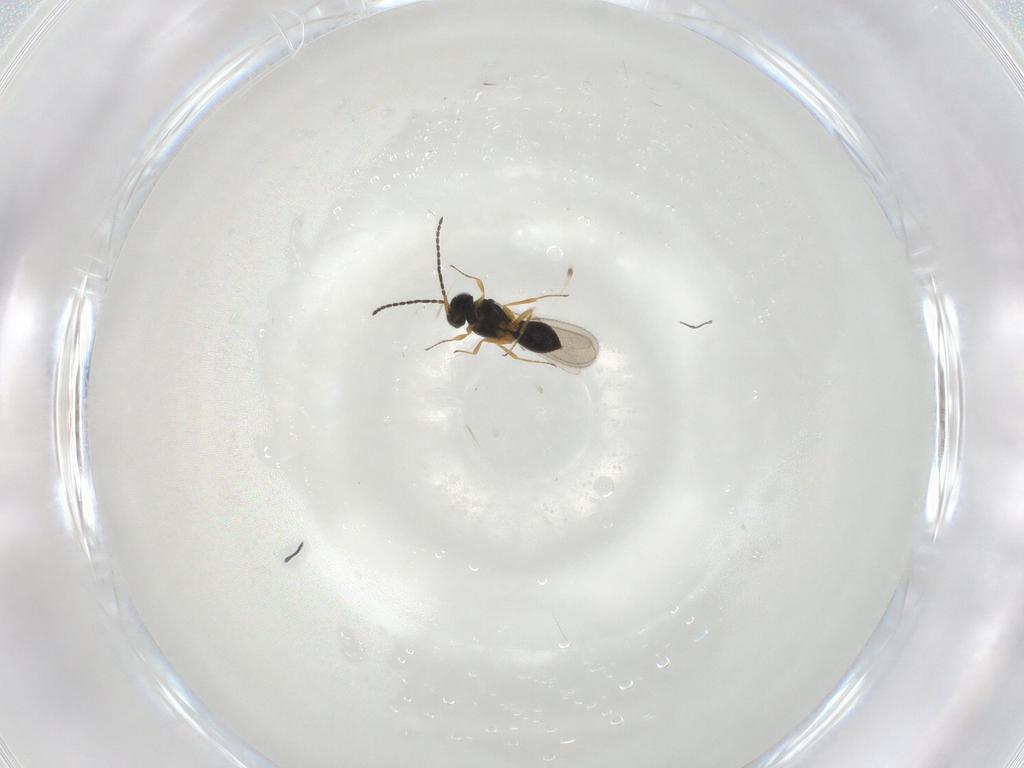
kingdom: Animalia
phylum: Arthropoda
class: Insecta
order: Hymenoptera
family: Scelionidae
